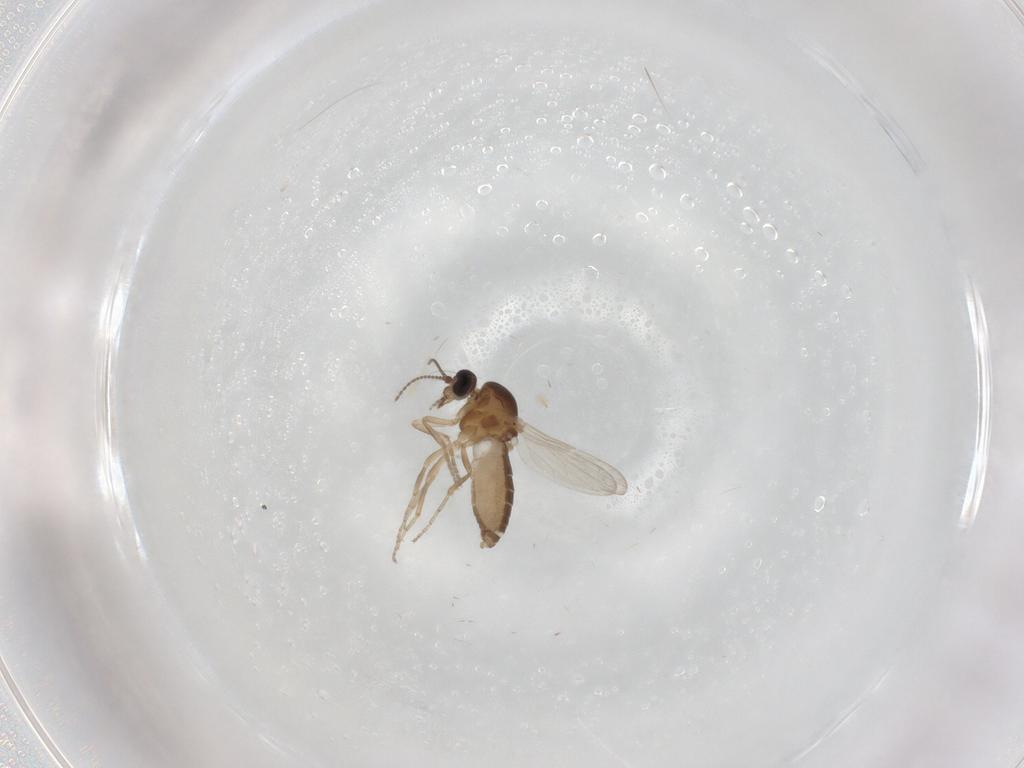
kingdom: Animalia
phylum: Arthropoda
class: Insecta
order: Diptera
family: Ceratopogonidae
